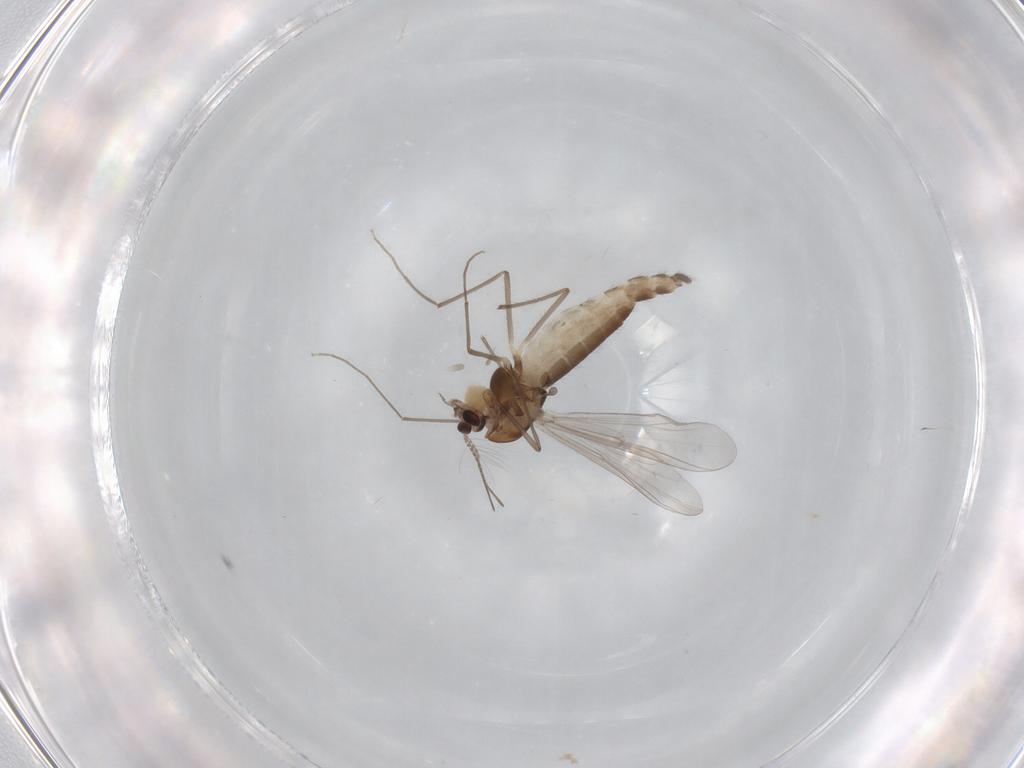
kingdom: Animalia
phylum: Arthropoda
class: Insecta
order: Diptera
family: Chironomidae
